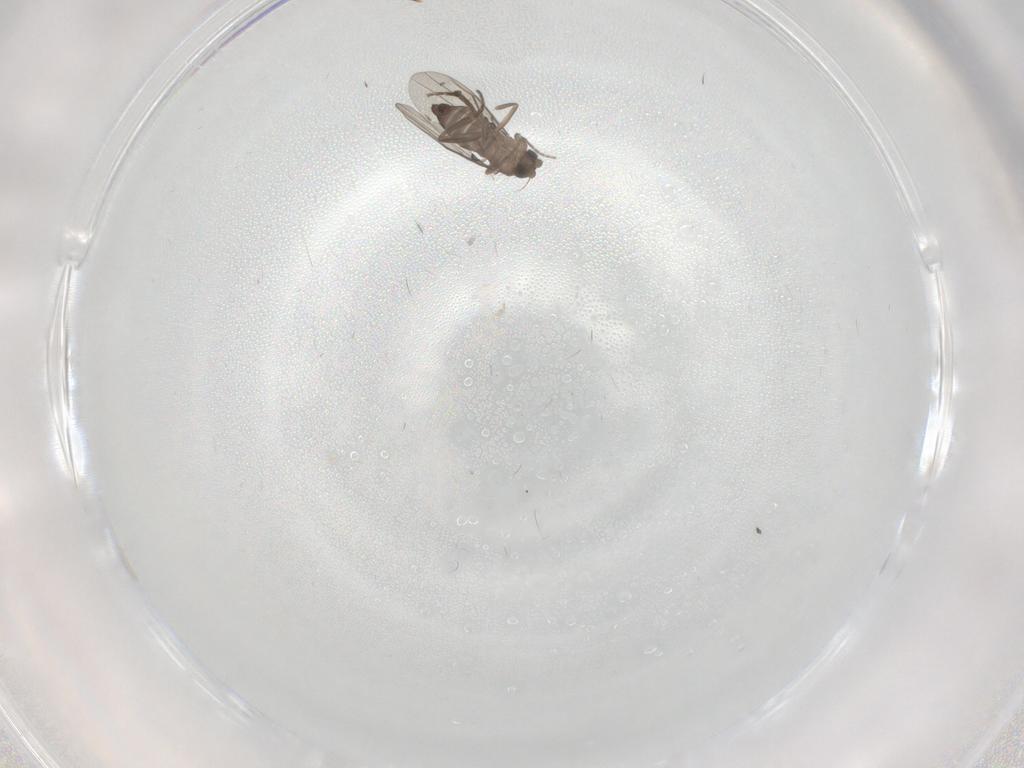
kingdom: Animalia
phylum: Arthropoda
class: Insecta
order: Diptera
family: Phoridae
